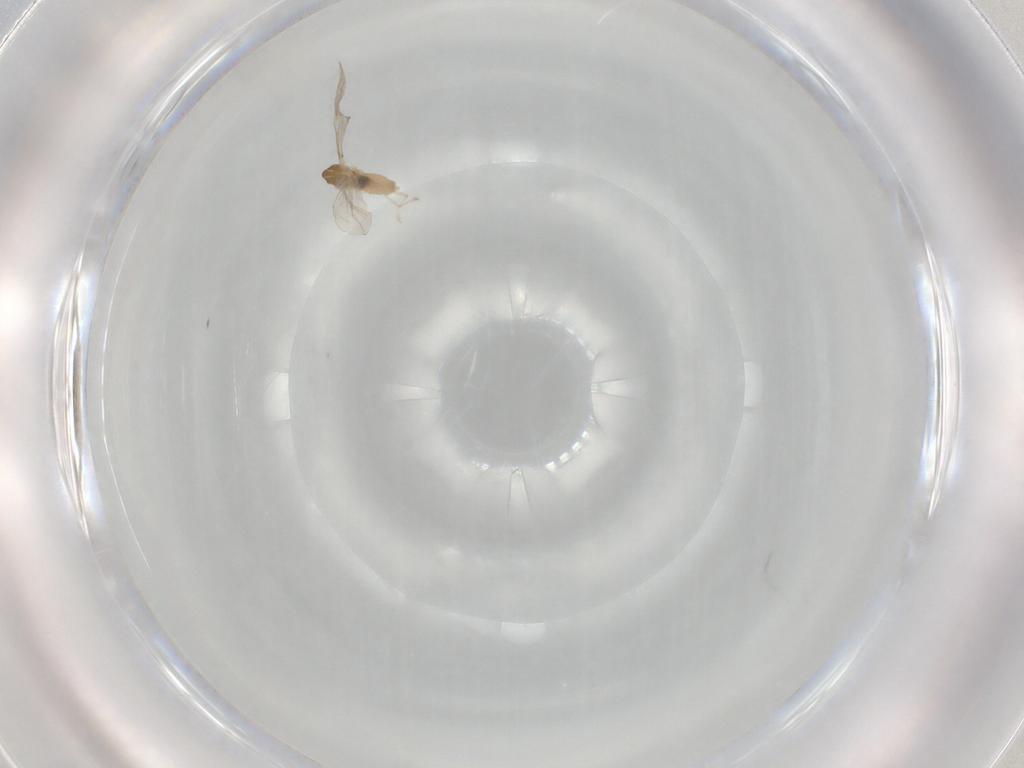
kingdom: Animalia
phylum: Arthropoda
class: Insecta
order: Diptera
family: Cecidomyiidae
